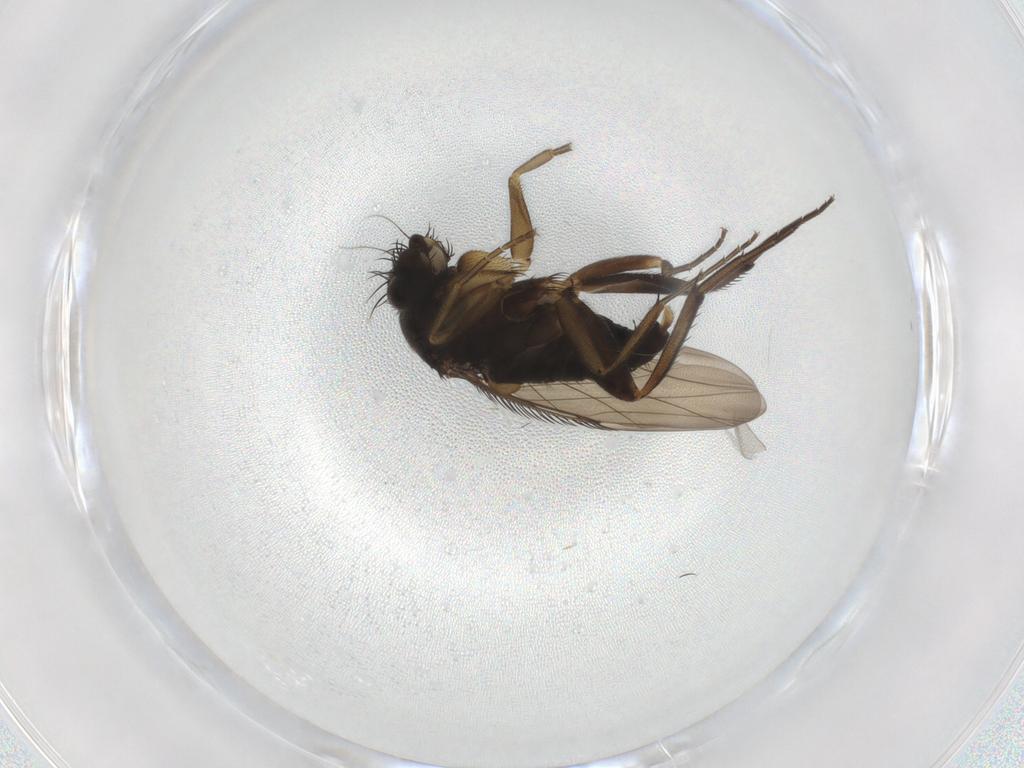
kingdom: Animalia
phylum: Arthropoda
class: Insecta
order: Diptera
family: Phoridae
